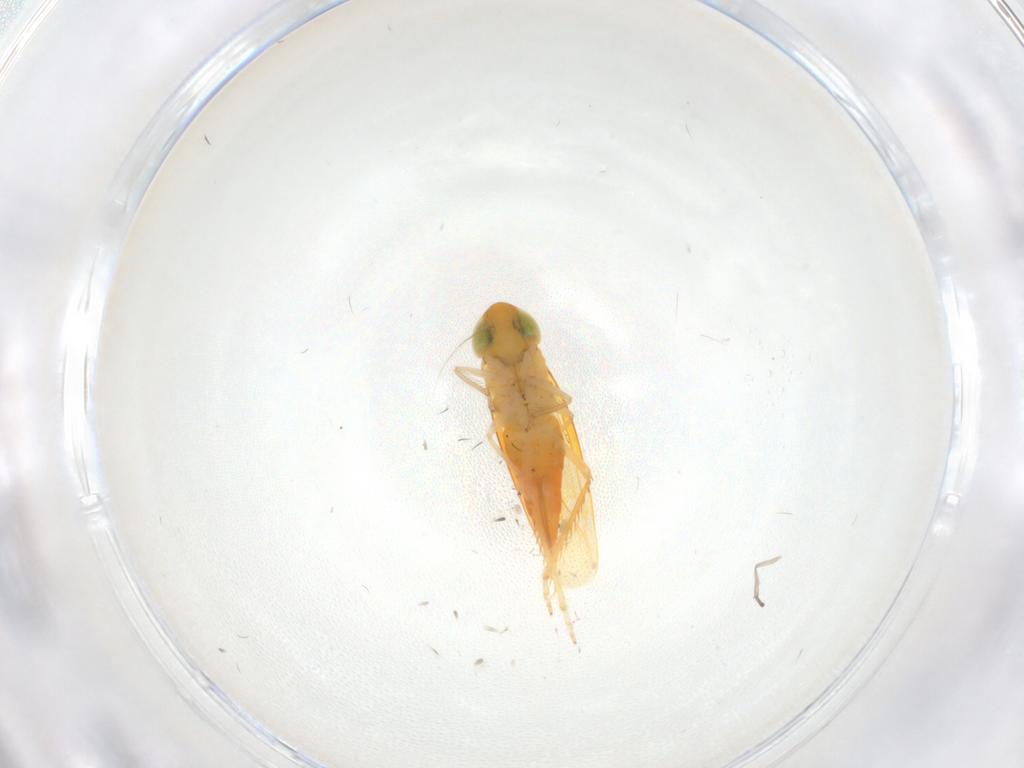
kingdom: Animalia
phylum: Arthropoda
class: Insecta
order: Hemiptera
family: Cicadellidae
